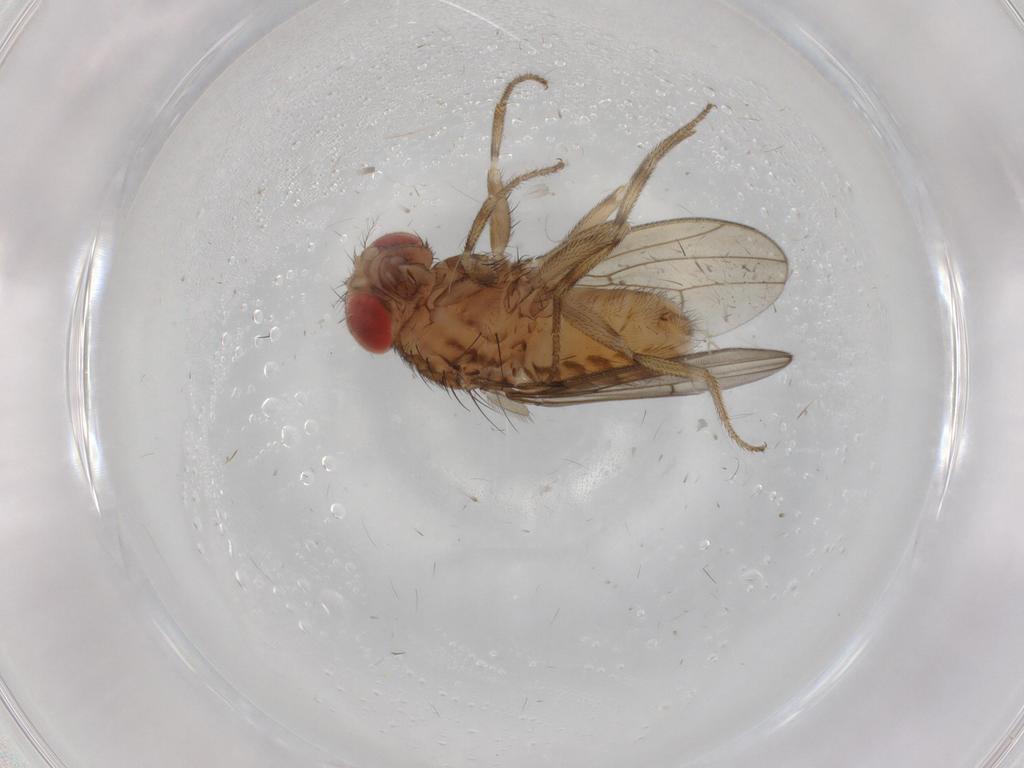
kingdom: Animalia
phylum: Arthropoda
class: Insecta
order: Diptera
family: Drosophilidae
